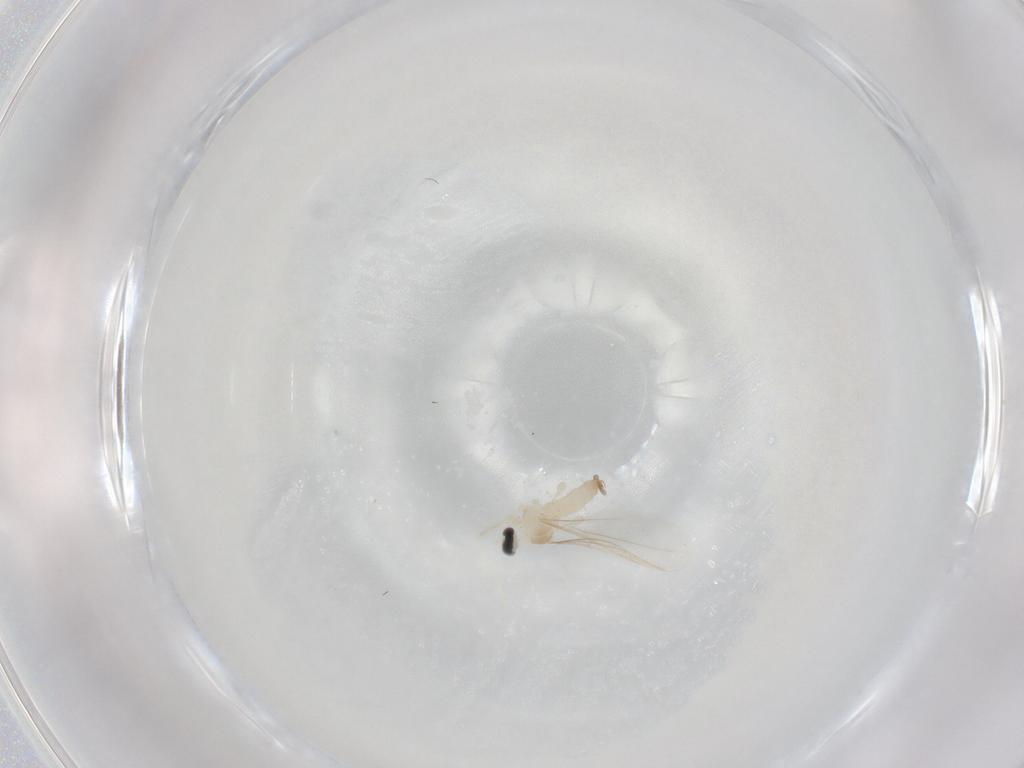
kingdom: Animalia
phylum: Arthropoda
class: Insecta
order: Diptera
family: Cecidomyiidae
